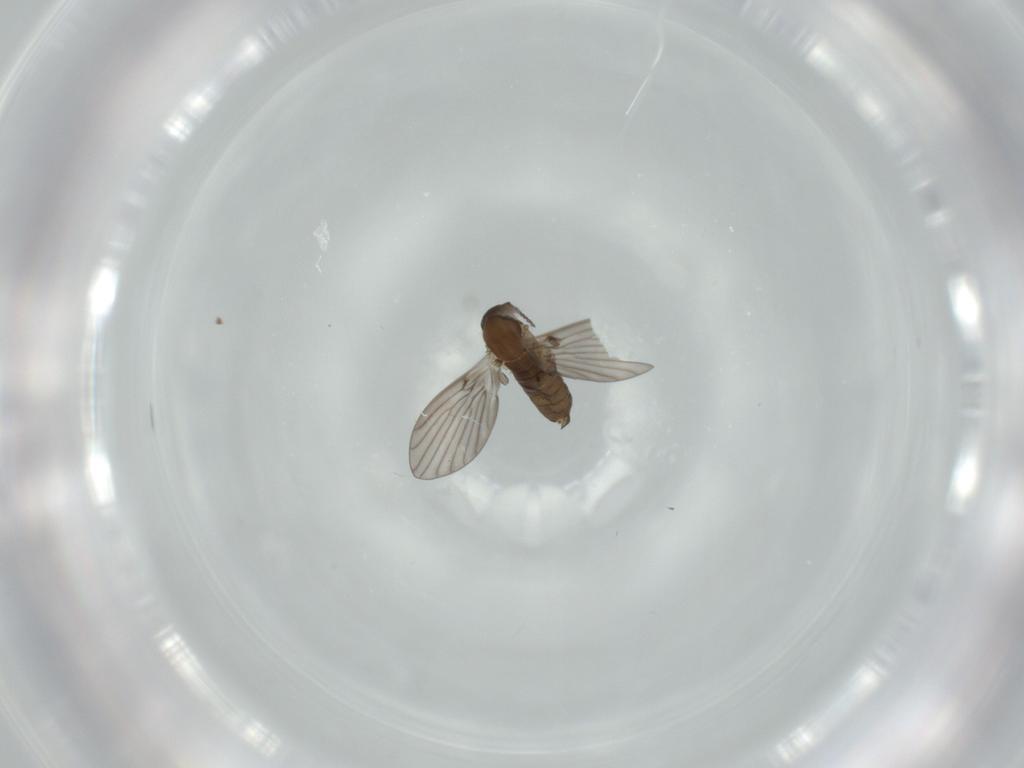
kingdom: Animalia
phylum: Arthropoda
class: Insecta
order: Diptera
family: Psychodidae
